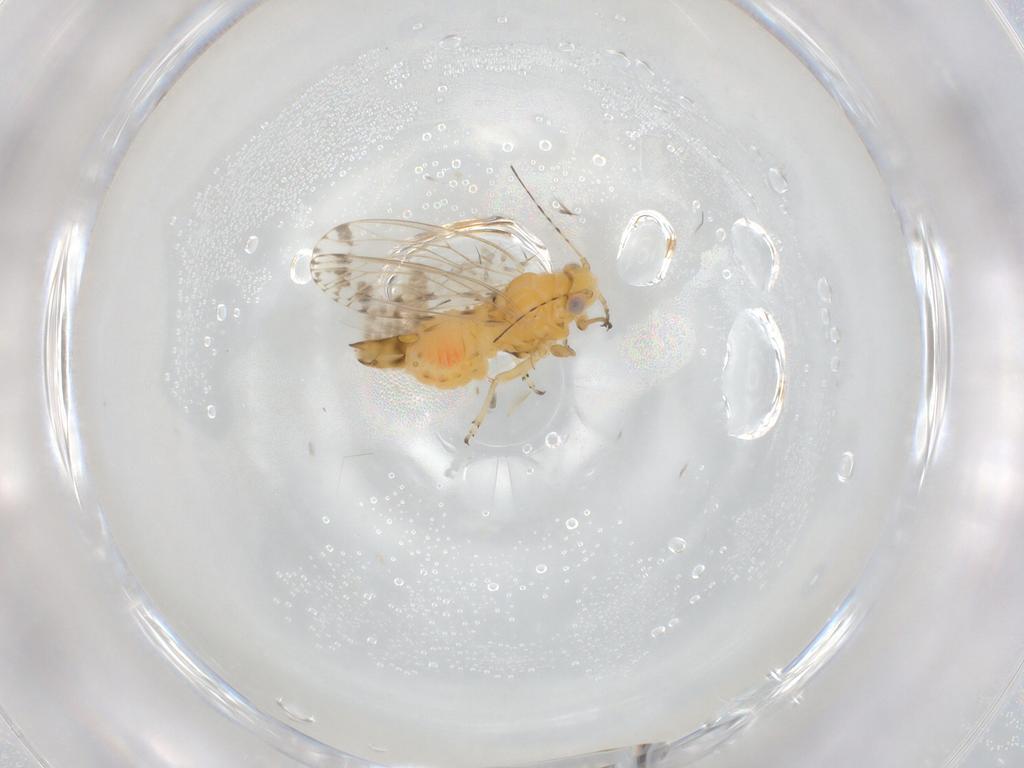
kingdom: Animalia
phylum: Arthropoda
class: Insecta
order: Hemiptera
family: Psyllidae
